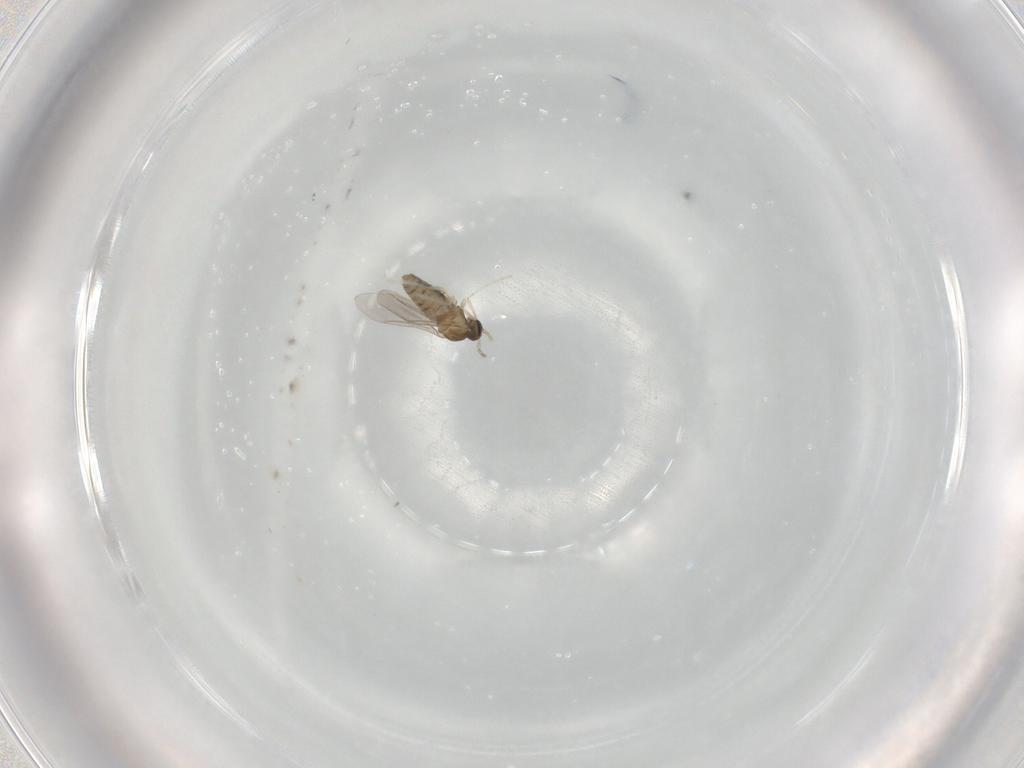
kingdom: Animalia
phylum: Arthropoda
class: Insecta
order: Diptera
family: Cecidomyiidae
